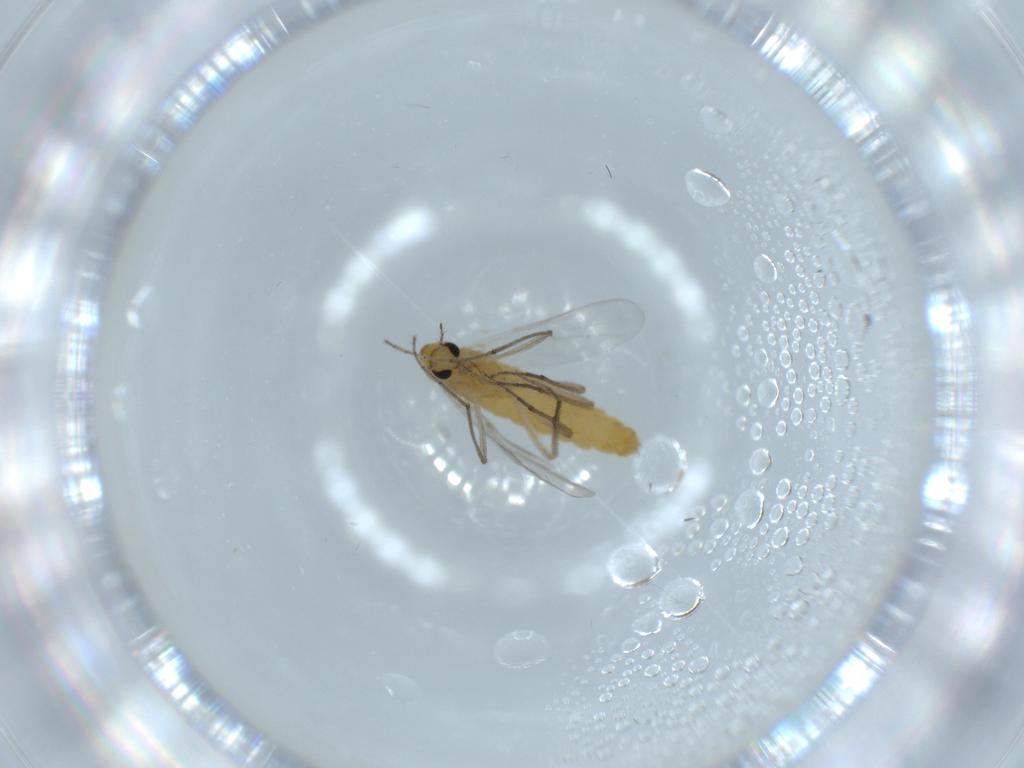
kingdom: Animalia
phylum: Arthropoda
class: Insecta
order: Diptera
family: Chironomidae
